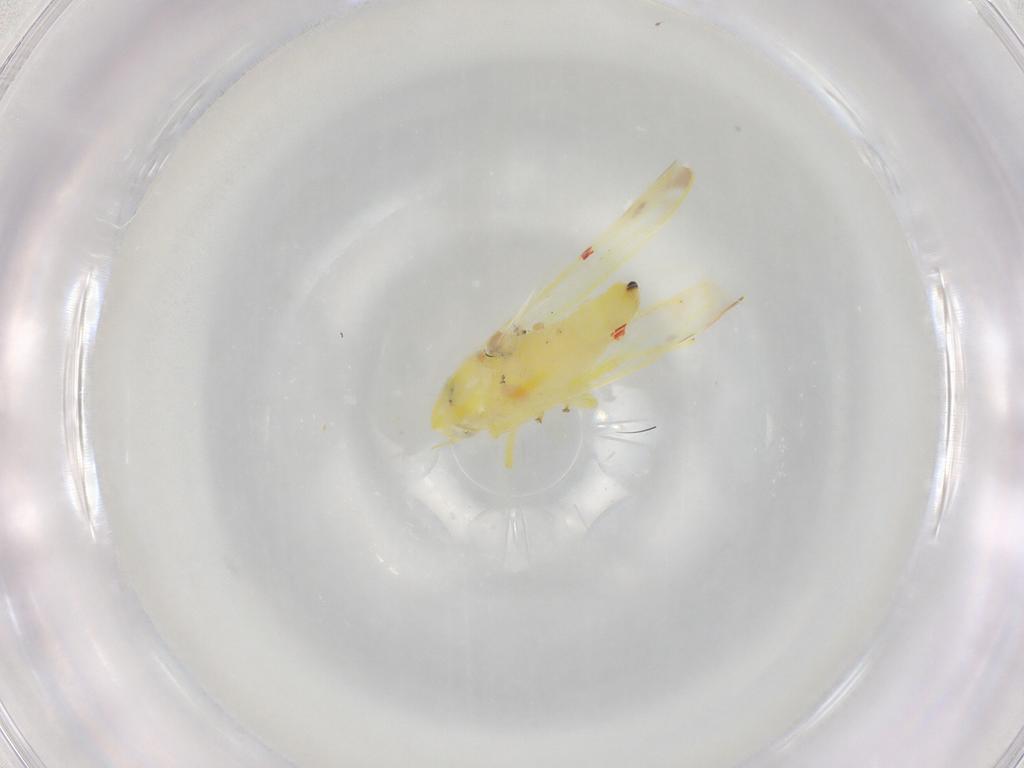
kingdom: Animalia
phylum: Arthropoda
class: Insecta
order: Hemiptera
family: Cicadellidae
